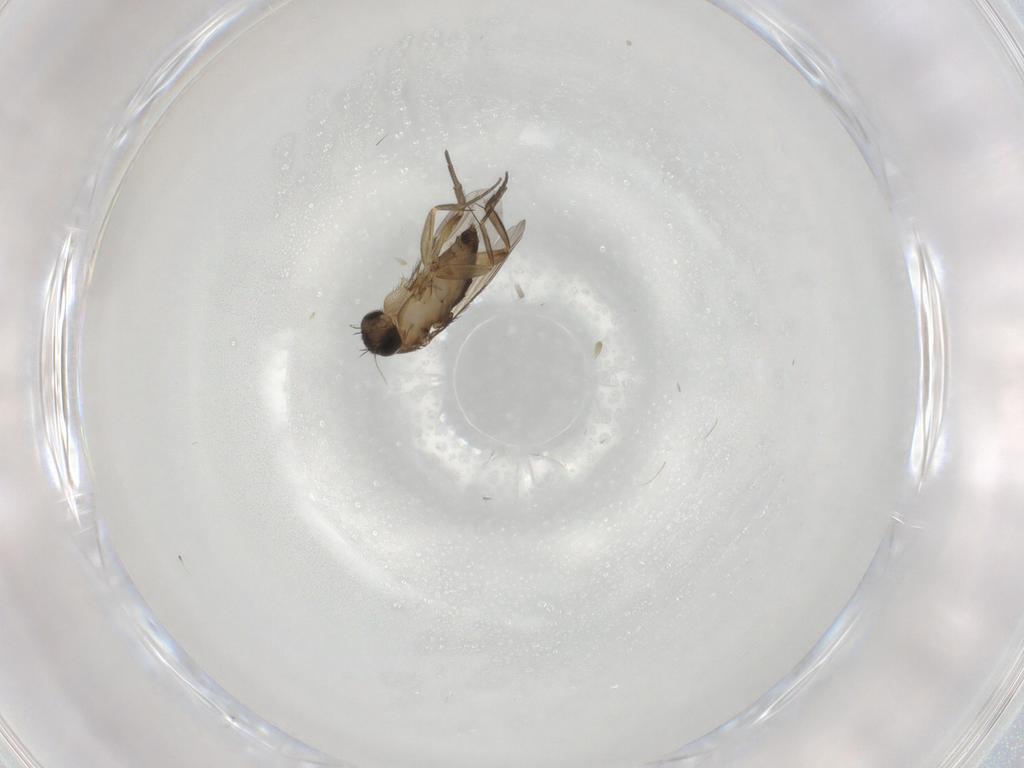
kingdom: Animalia
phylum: Arthropoda
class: Insecta
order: Diptera
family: Phoridae
